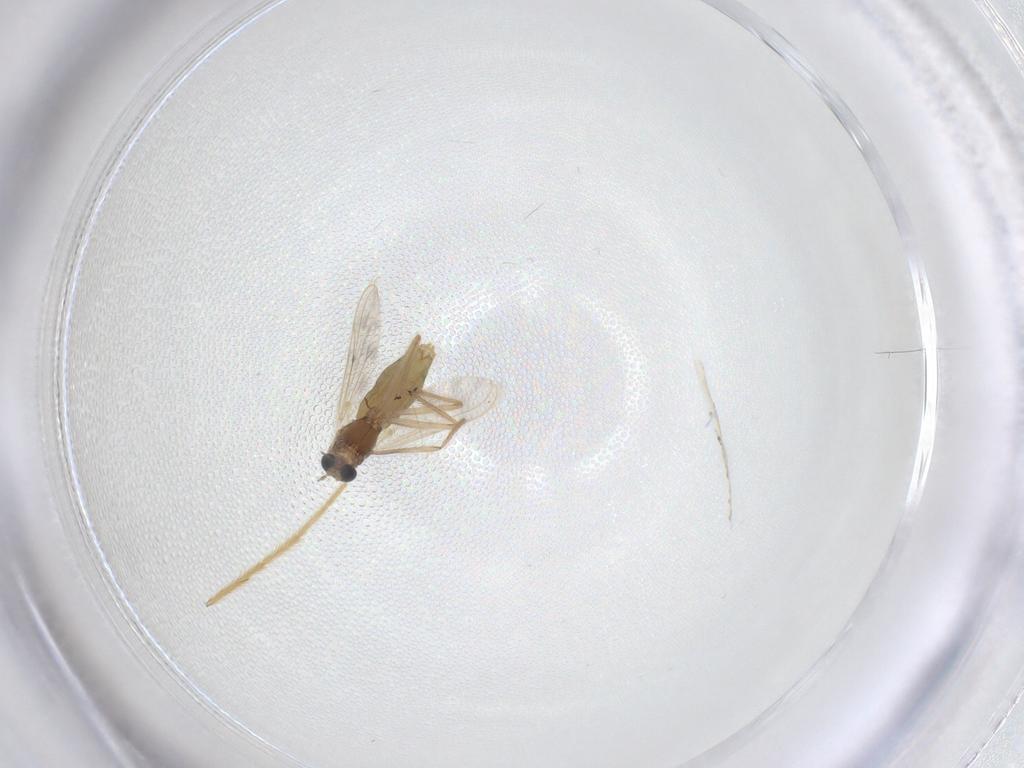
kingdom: Animalia
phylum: Arthropoda
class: Insecta
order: Diptera
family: Chironomidae
